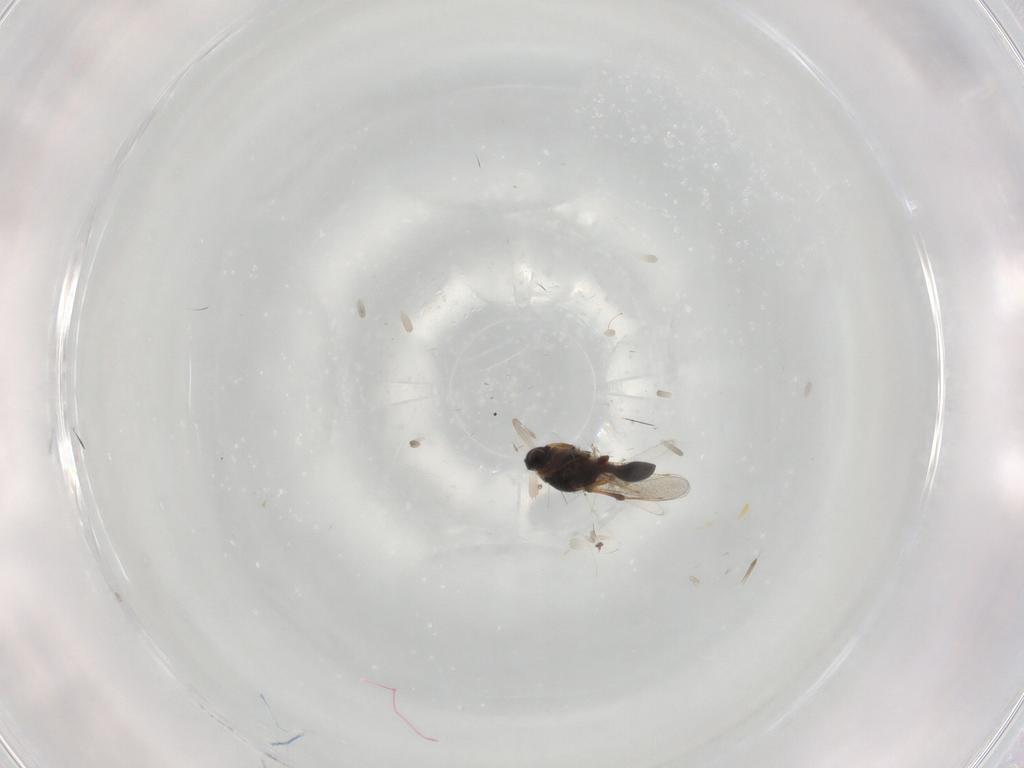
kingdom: Animalia
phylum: Arthropoda
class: Insecta
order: Hymenoptera
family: Platygastridae
